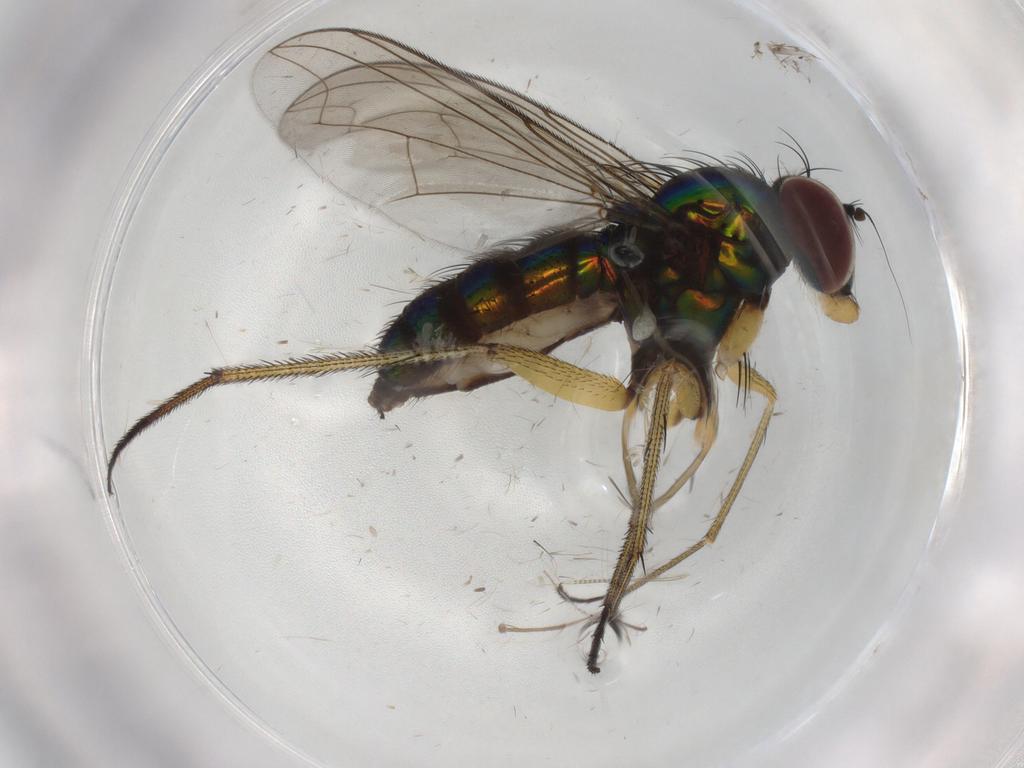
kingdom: Animalia
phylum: Arthropoda
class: Insecta
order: Diptera
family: Dolichopodidae
